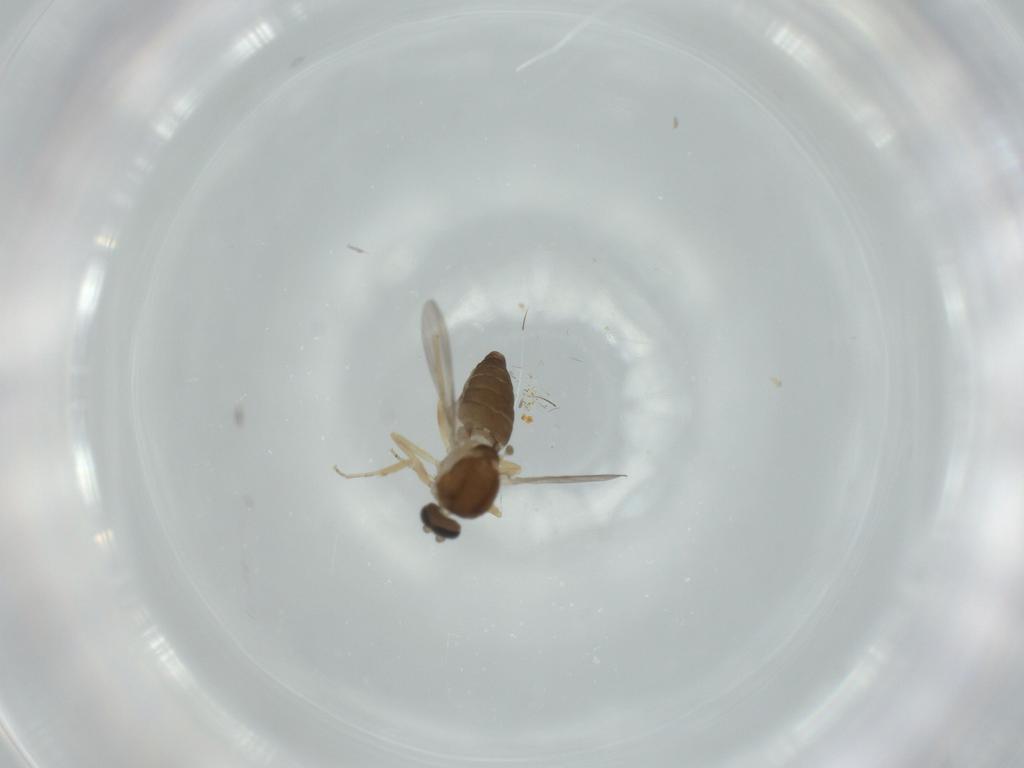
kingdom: Animalia
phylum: Arthropoda
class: Insecta
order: Diptera
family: Ceratopogonidae
